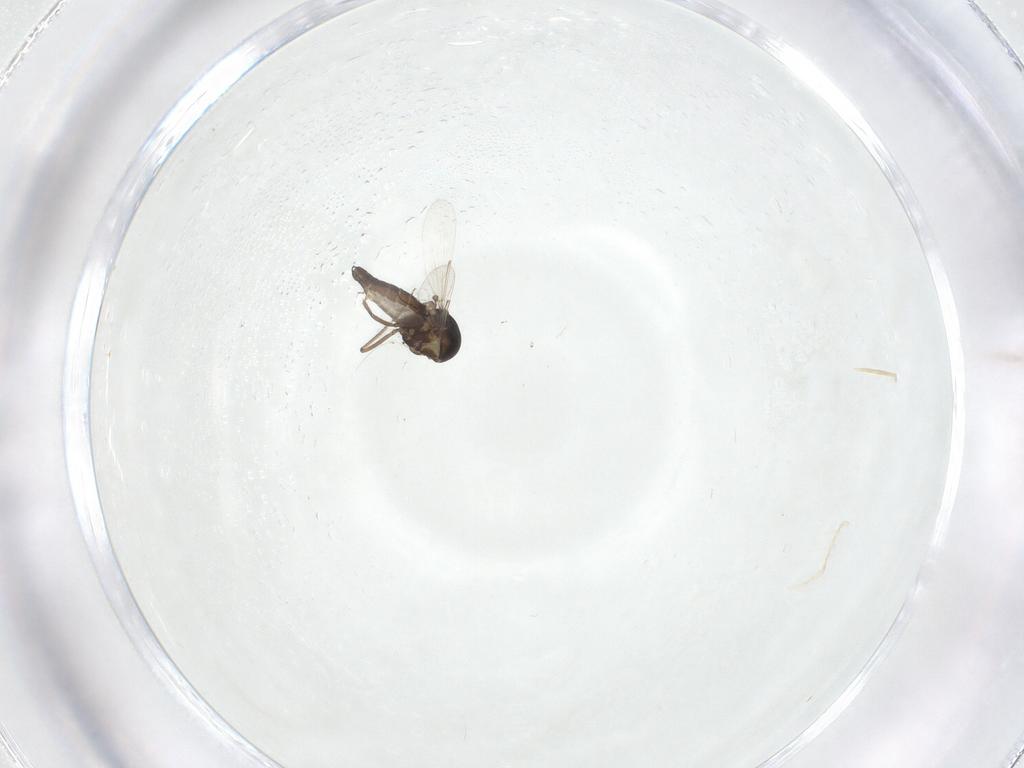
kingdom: Animalia
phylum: Arthropoda
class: Insecta
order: Diptera
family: Ceratopogonidae
